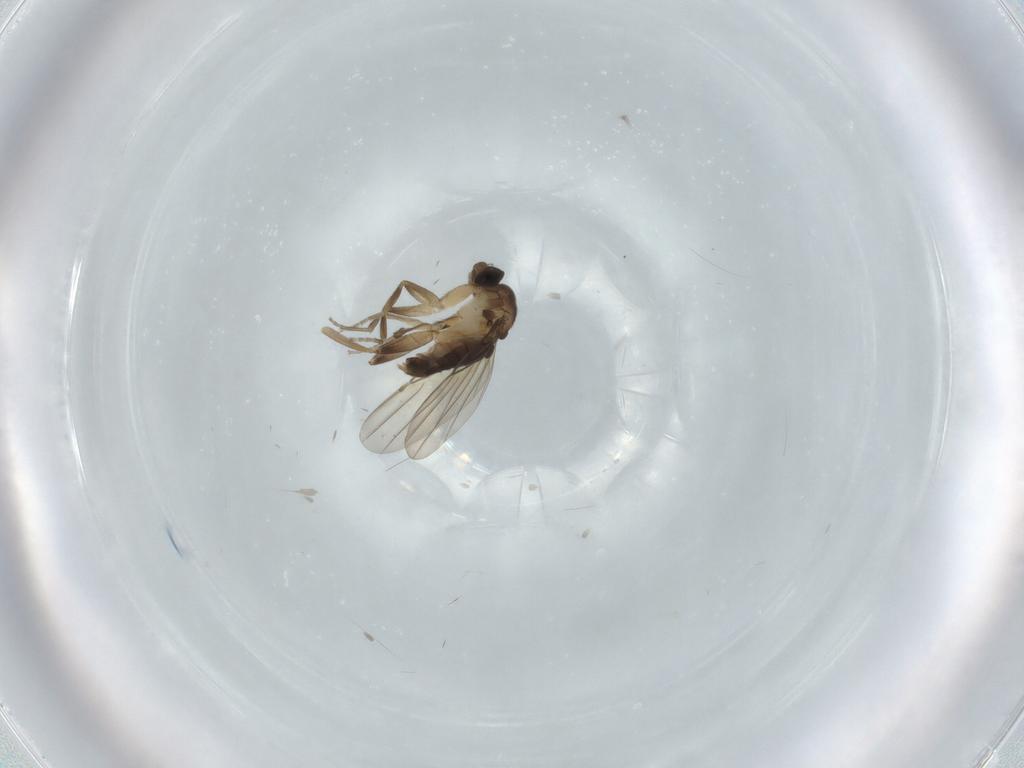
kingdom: Animalia
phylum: Arthropoda
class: Insecta
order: Diptera
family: Phoridae
